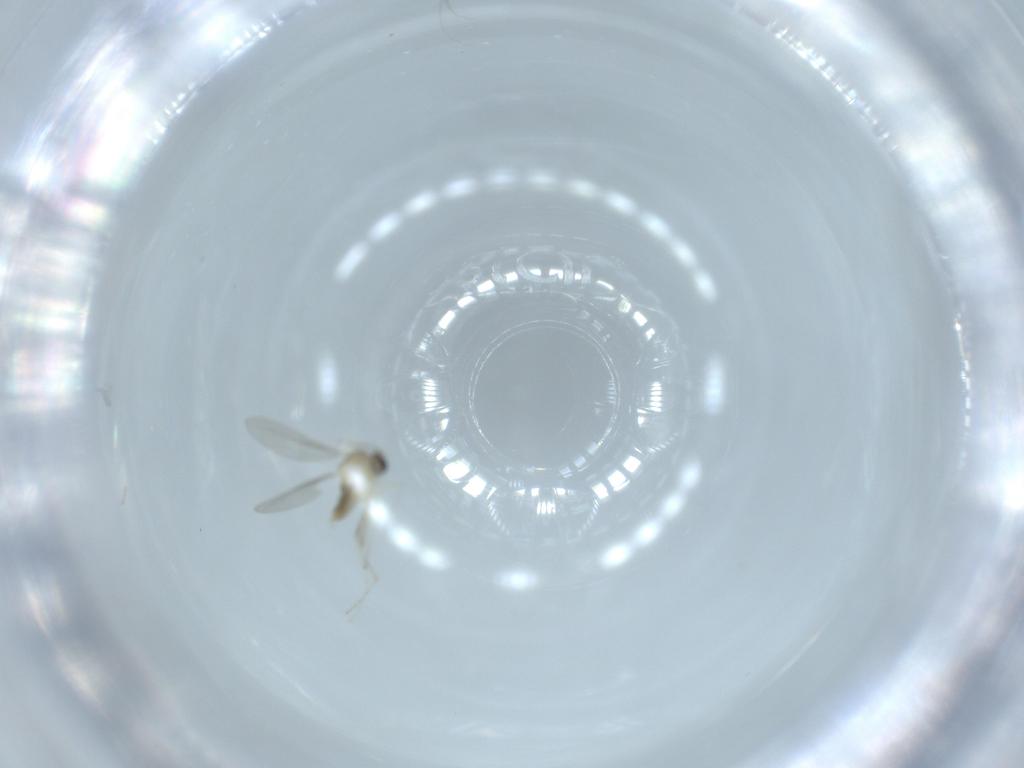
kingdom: Animalia
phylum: Arthropoda
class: Insecta
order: Diptera
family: Cecidomyiidae
